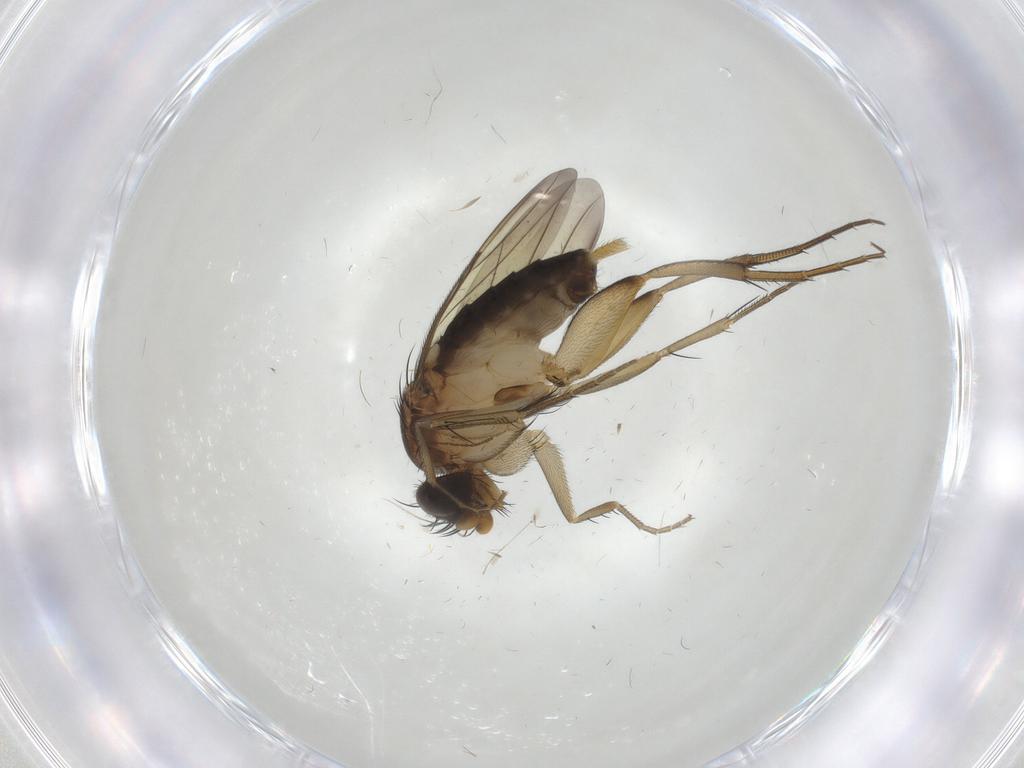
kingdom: Animalia
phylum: Arthropoda
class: Insecta
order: Diptera
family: Phoridae
